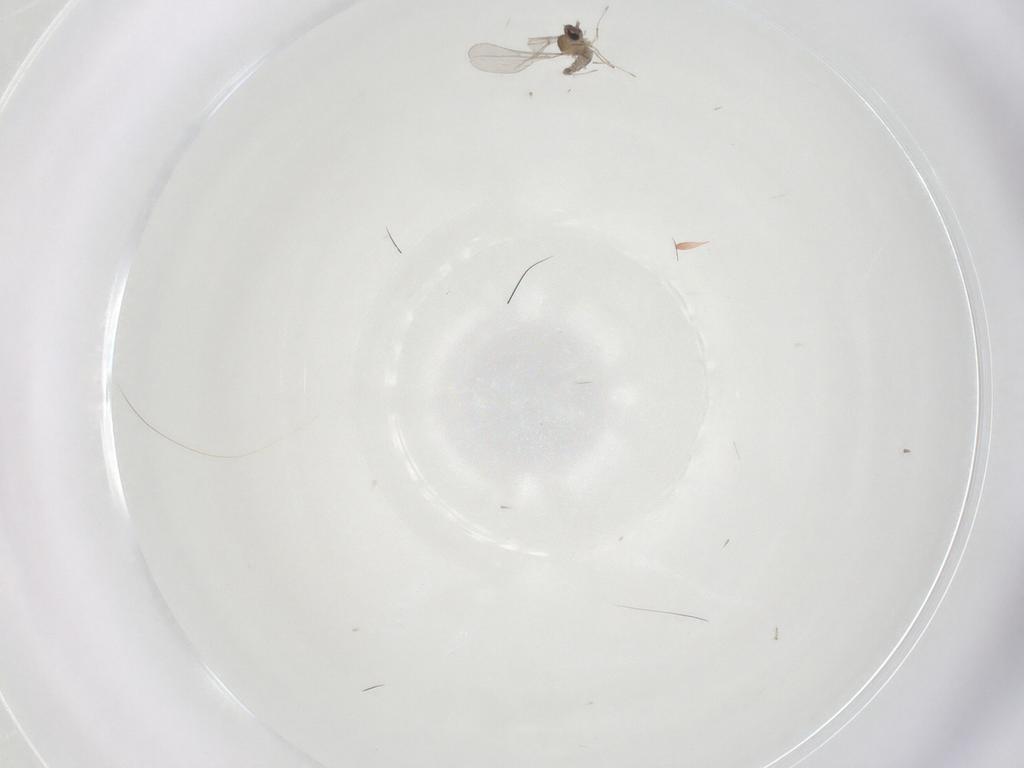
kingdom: Animalia
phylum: Arthropoda
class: Insecta
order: Diptera
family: Cecidomyiidae
